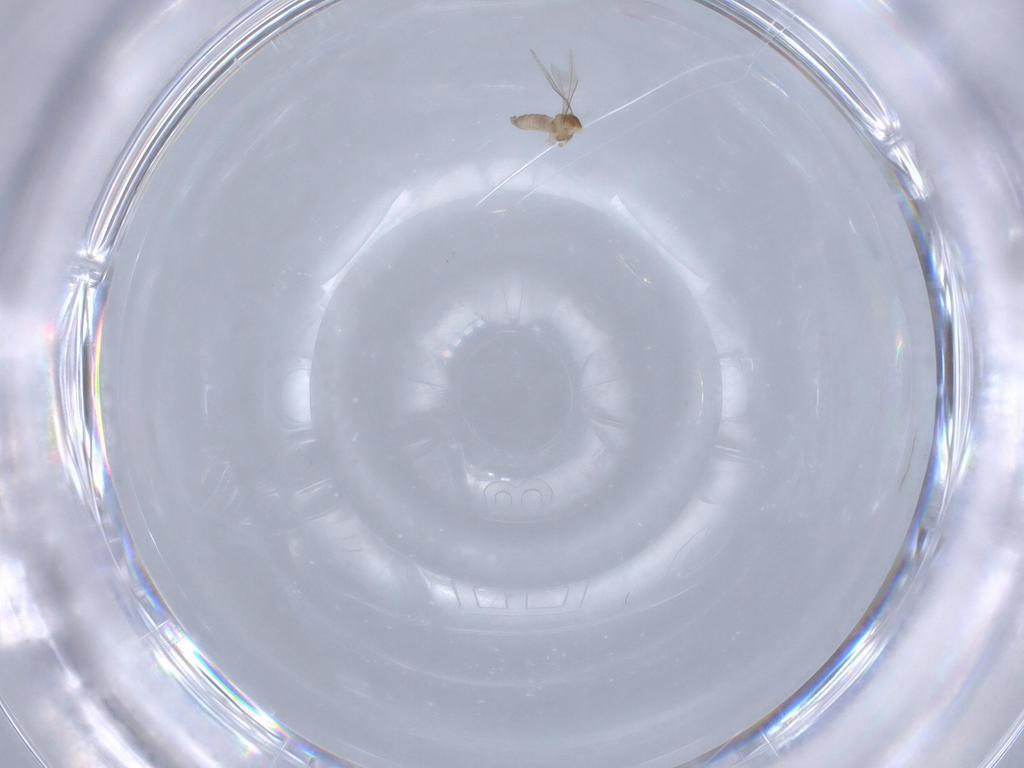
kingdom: Animalia
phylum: Arthropoda
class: Insecta
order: Diptera
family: Cecidomyiidae
